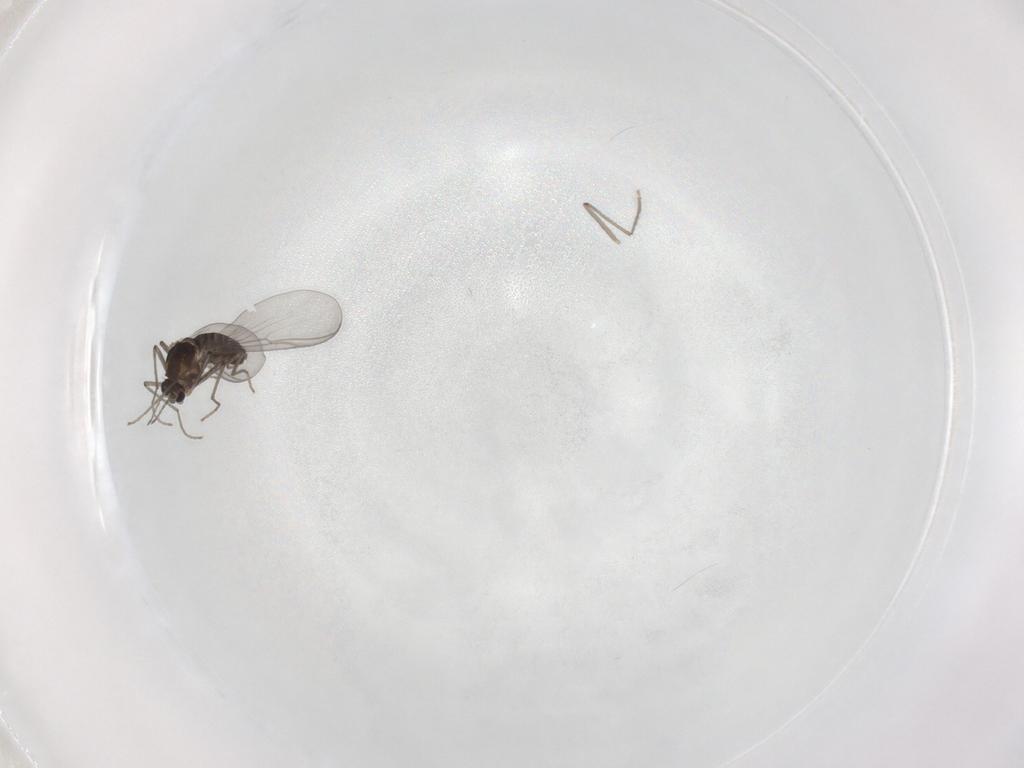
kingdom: Animalia
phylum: Arthropoda
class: Insecta
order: Diptera
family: Chironomidae
